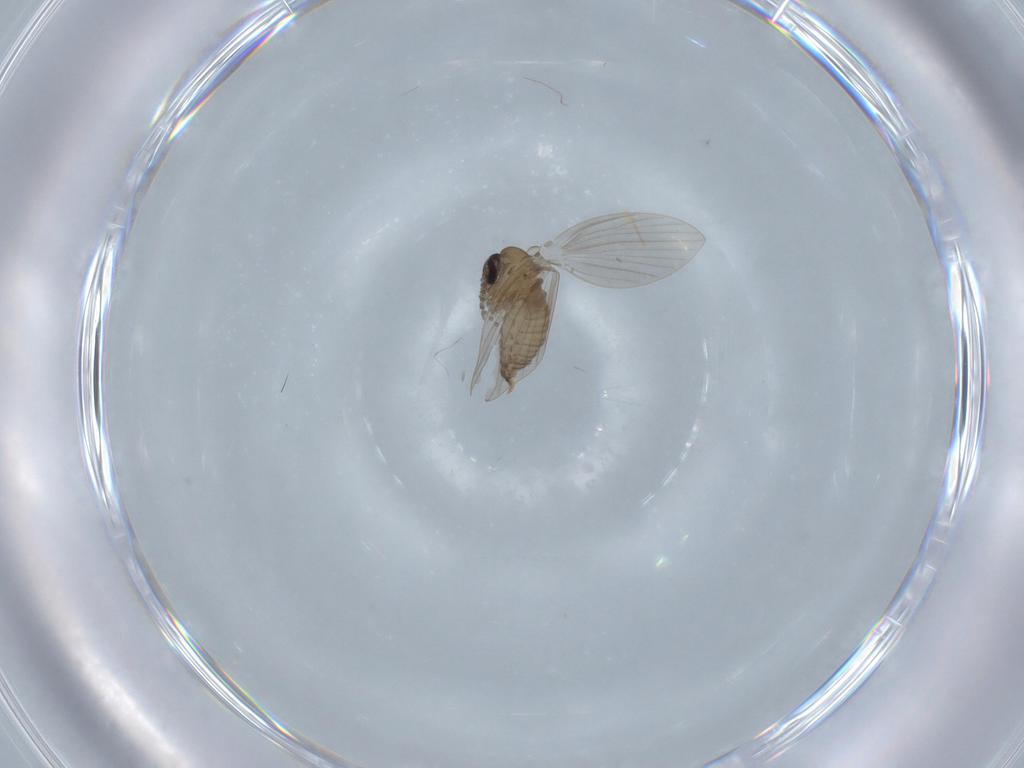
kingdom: Animalia
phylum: Arthropoda
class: Insecta
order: Diptera
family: Psychodidae
